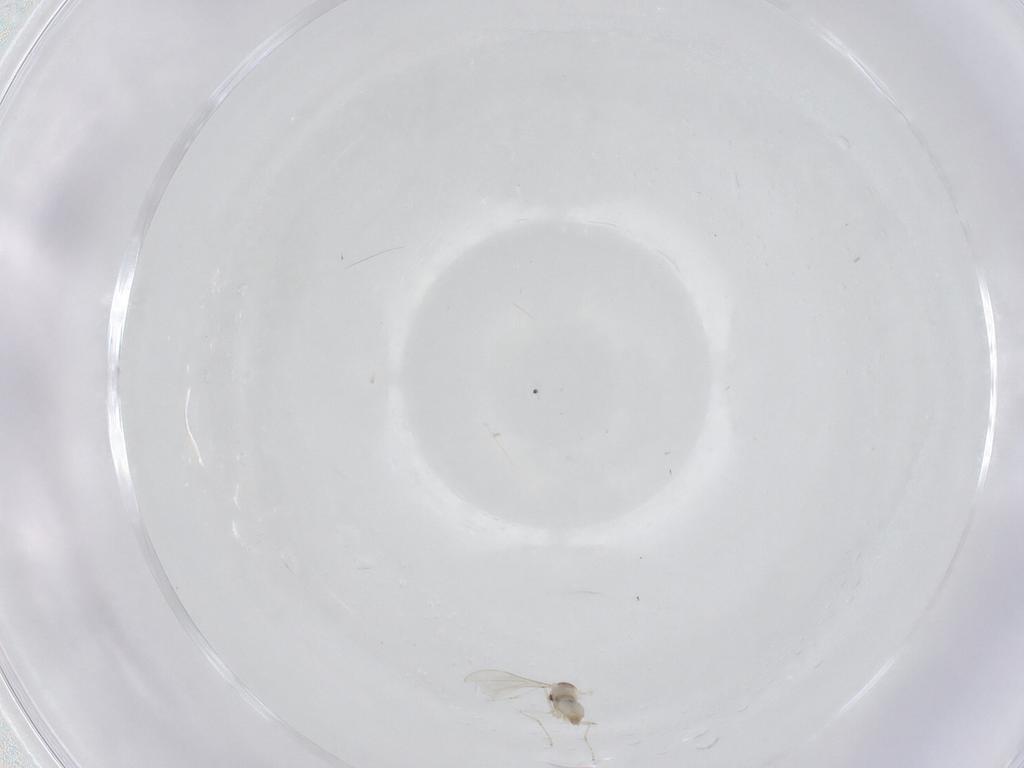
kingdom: Animalia
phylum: Arthropoda
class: Insecta
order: Diptera
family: Cecidomyiidae
